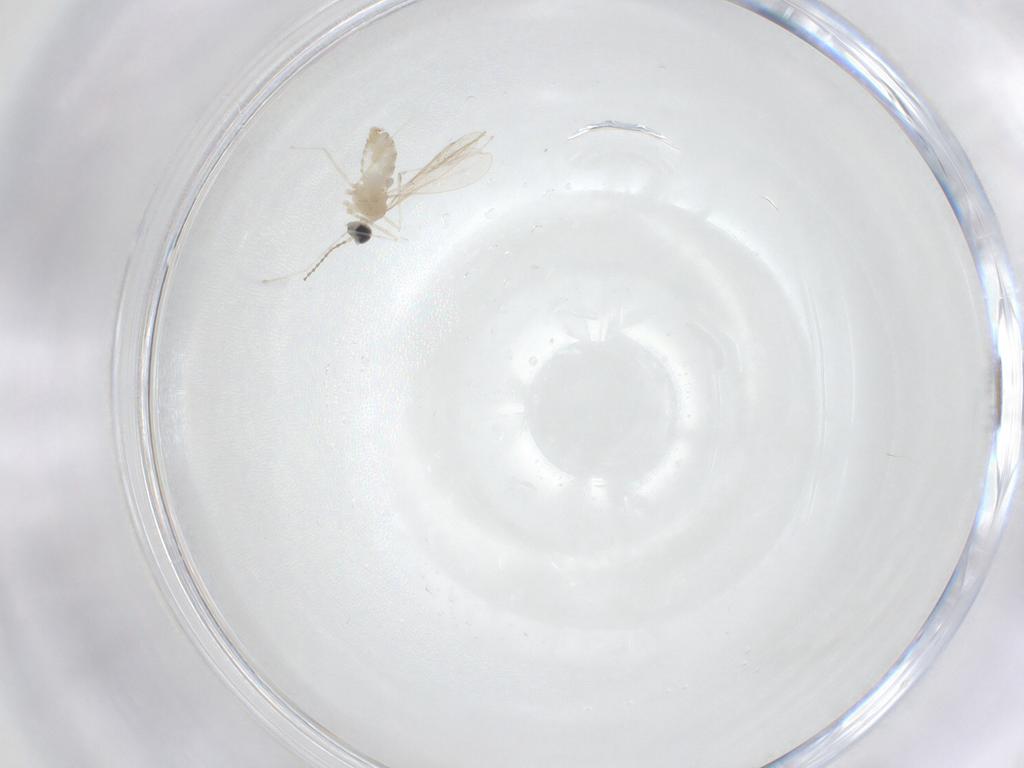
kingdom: Animalia
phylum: Arthropoda
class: Insecta
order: Diptera
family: Cecidomyiidae
